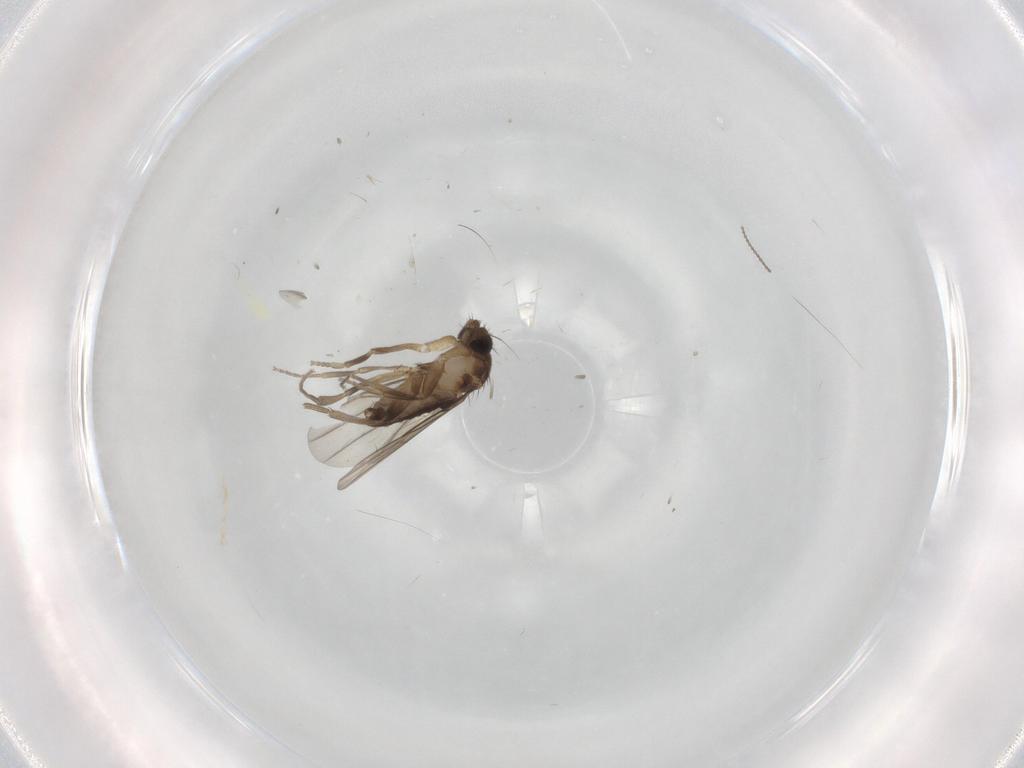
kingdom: Animalia
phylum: Arthropoda
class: Insecta
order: Diptera
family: Phoridae
